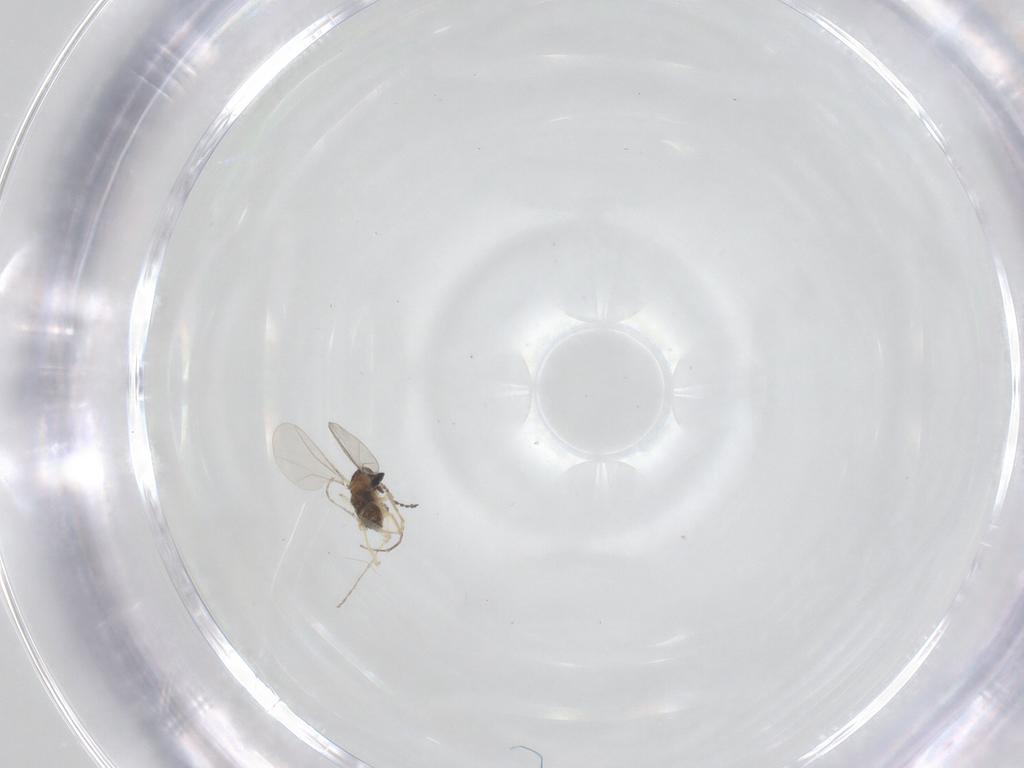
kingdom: Animalia
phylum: Arthropoda
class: Insecta
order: Diptera
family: Cecidomyiidae
